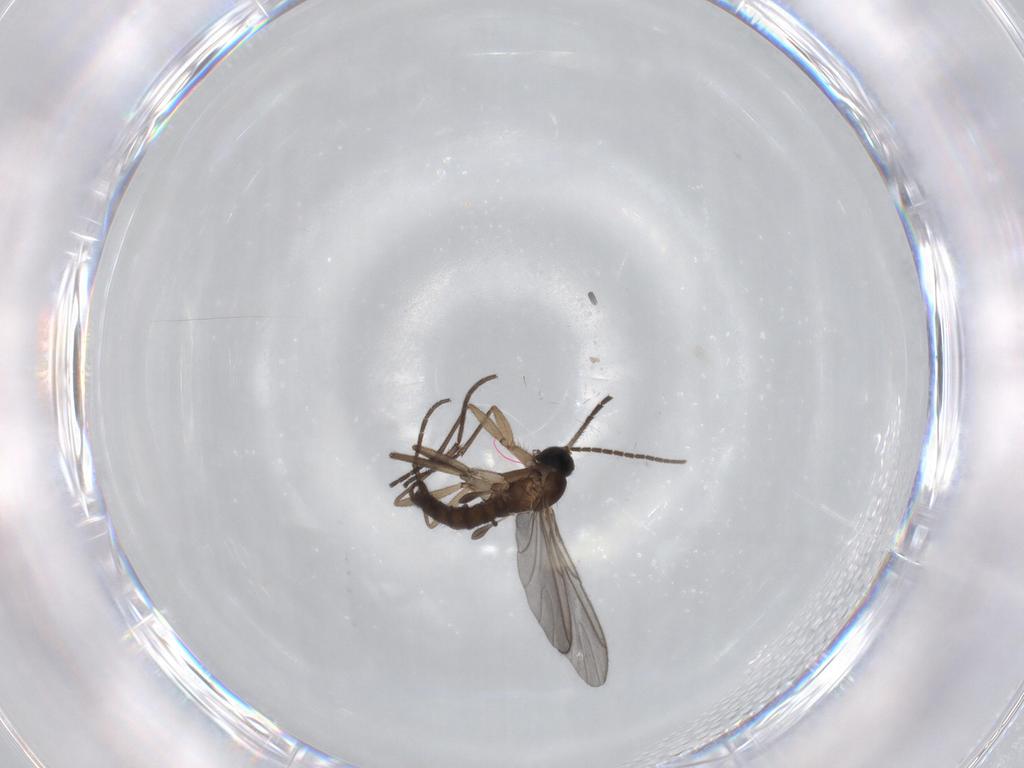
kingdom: Animalia
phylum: Arthropoda
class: Insecta
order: Diptera
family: Sciaridae
